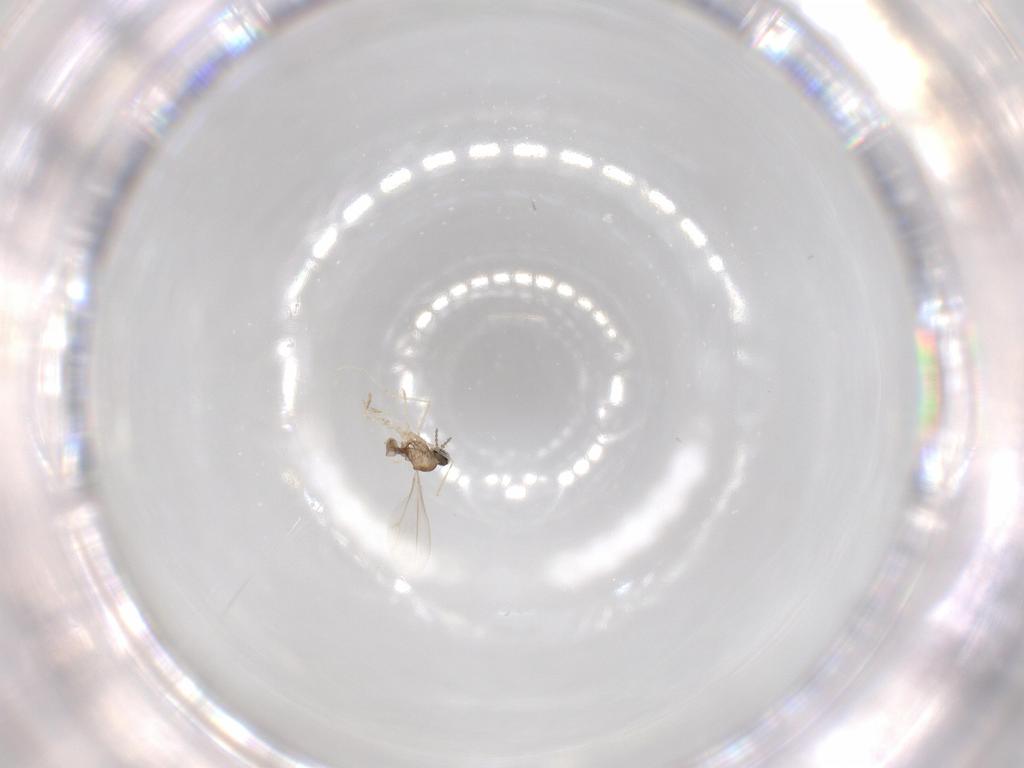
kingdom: Animalia
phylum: Arthropoda
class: Insecta
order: Diptera
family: Cecidomyiidae
